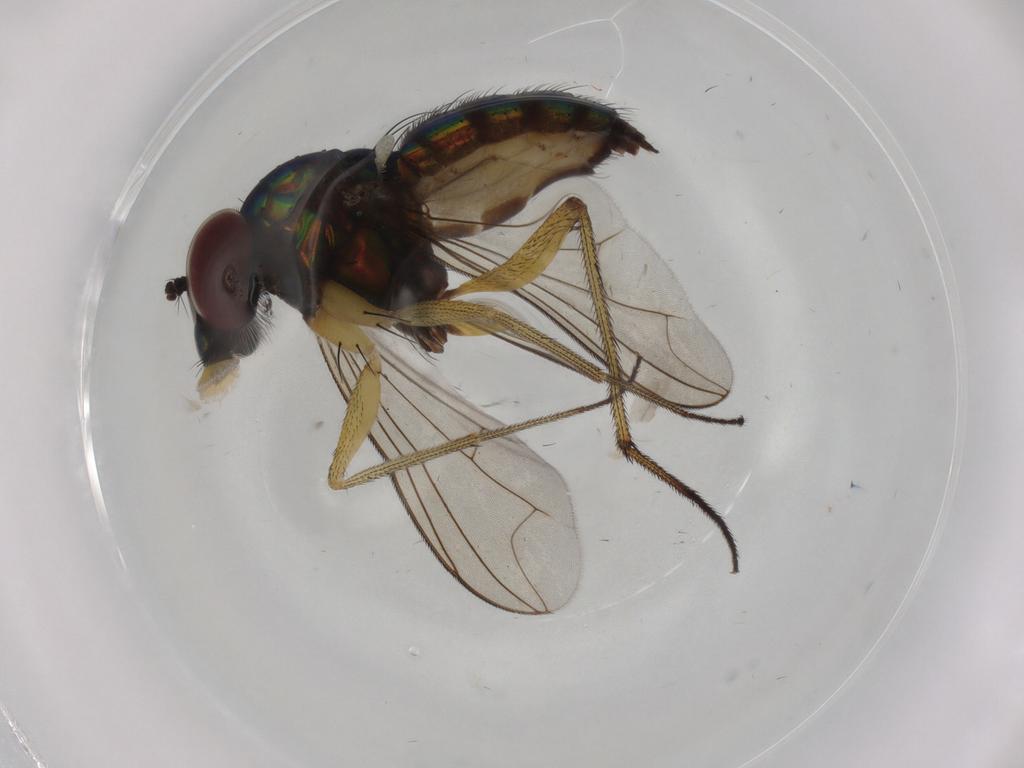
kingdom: Animalia
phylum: Arthropoda
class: Insecta
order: Diptera
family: Dolichopodidae
